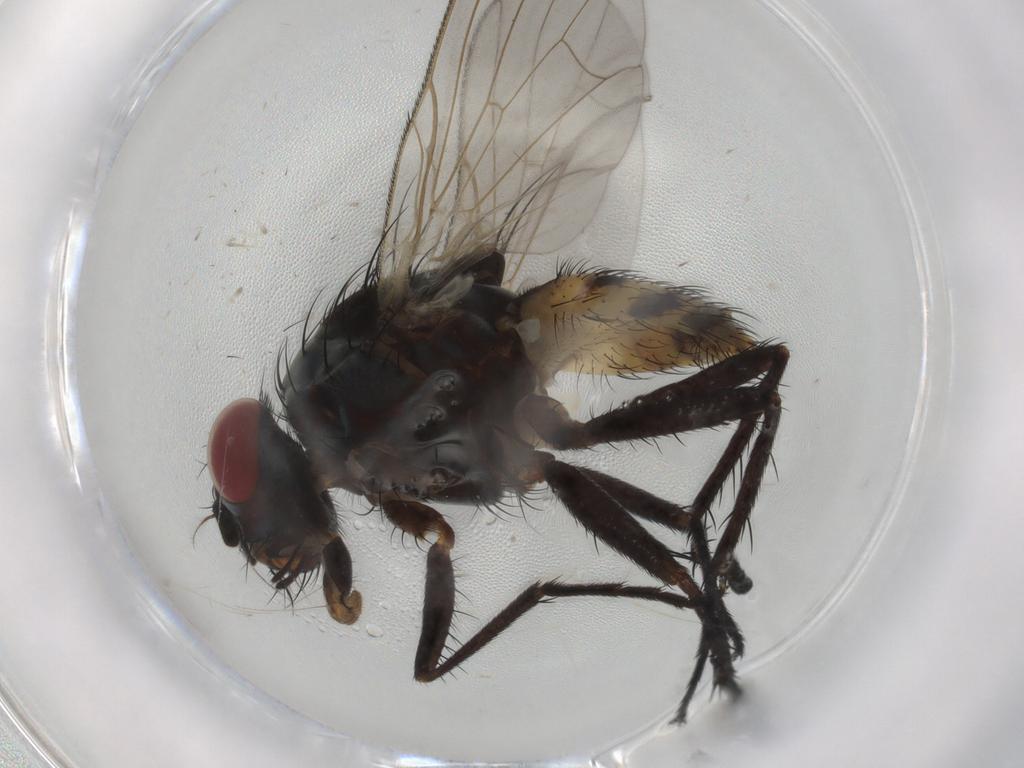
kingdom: Animalia
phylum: Arthropoda
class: Insecta
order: Diptera
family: Anthomyiidae
